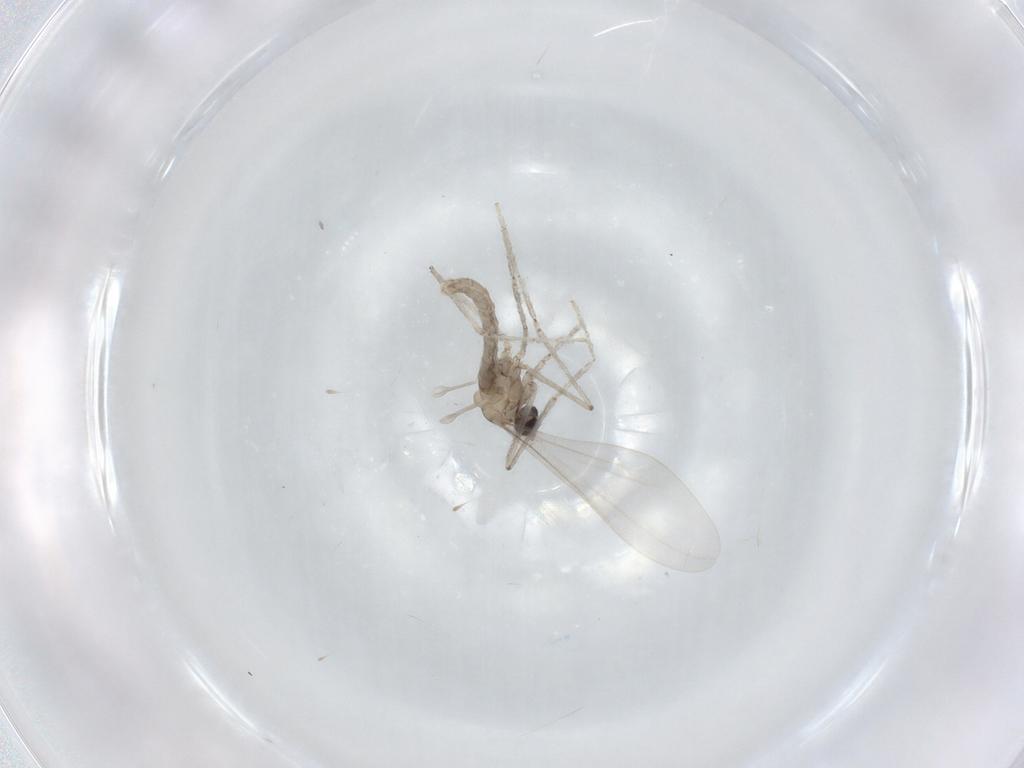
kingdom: Animalia
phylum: Arthropoda
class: Insecta
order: Diptera
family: Cecidomyiidae
